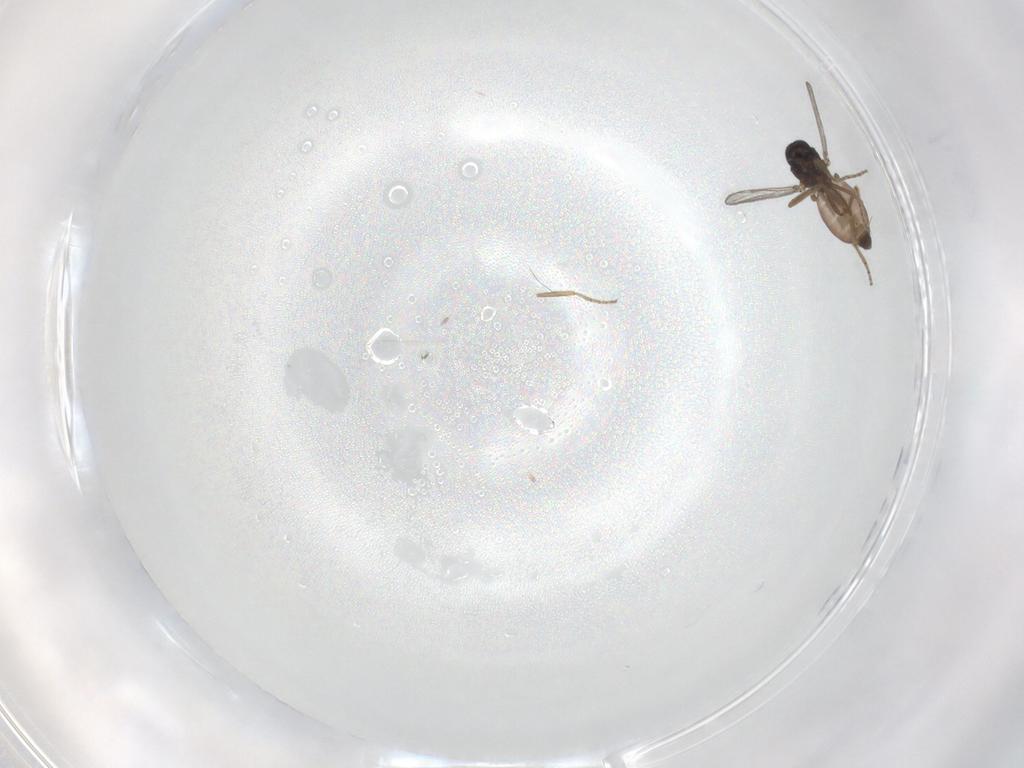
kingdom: Animalia
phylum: Arthropoda
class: Insecta
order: Diptera
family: Ceratopogonidae
